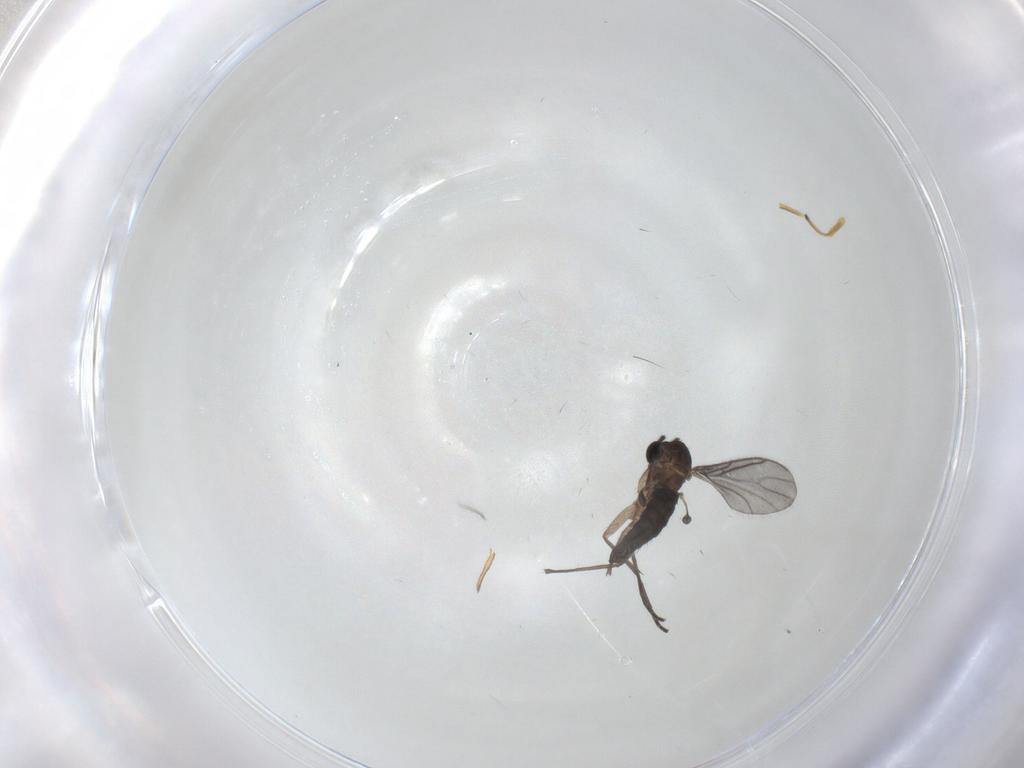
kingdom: Animalia
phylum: Arthropoda
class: Insecta
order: Diptera
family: Sciaridae
